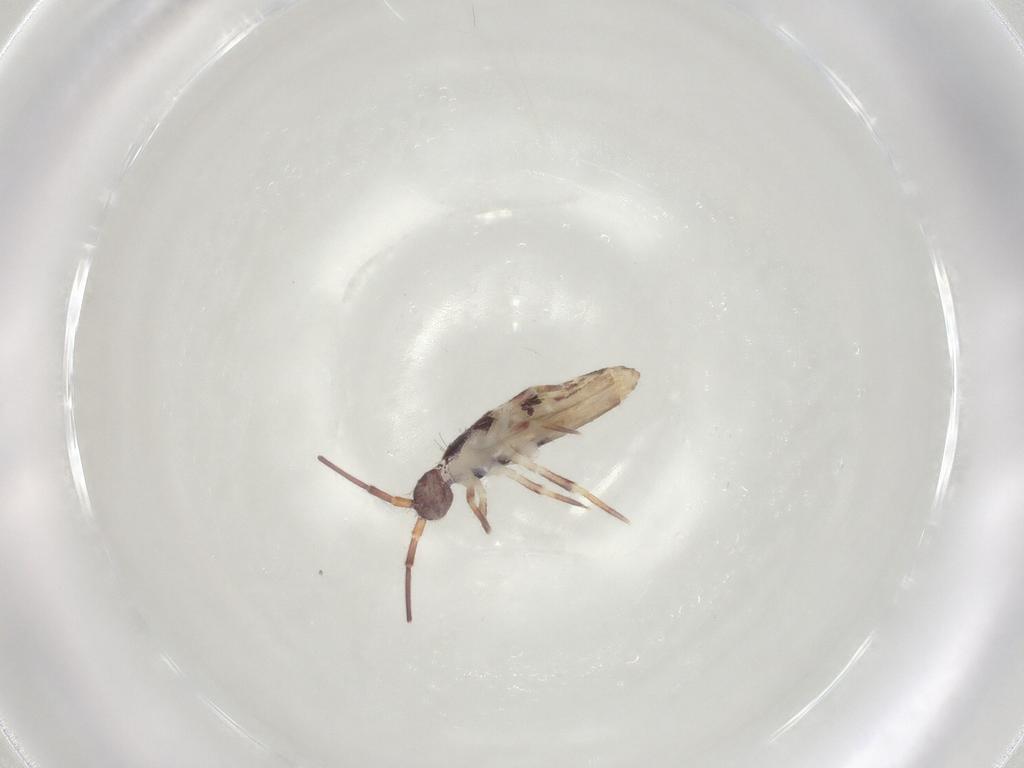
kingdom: Animalia
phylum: Arthropoda
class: Collembola
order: Entomobryomorpha
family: Entomobryidae
